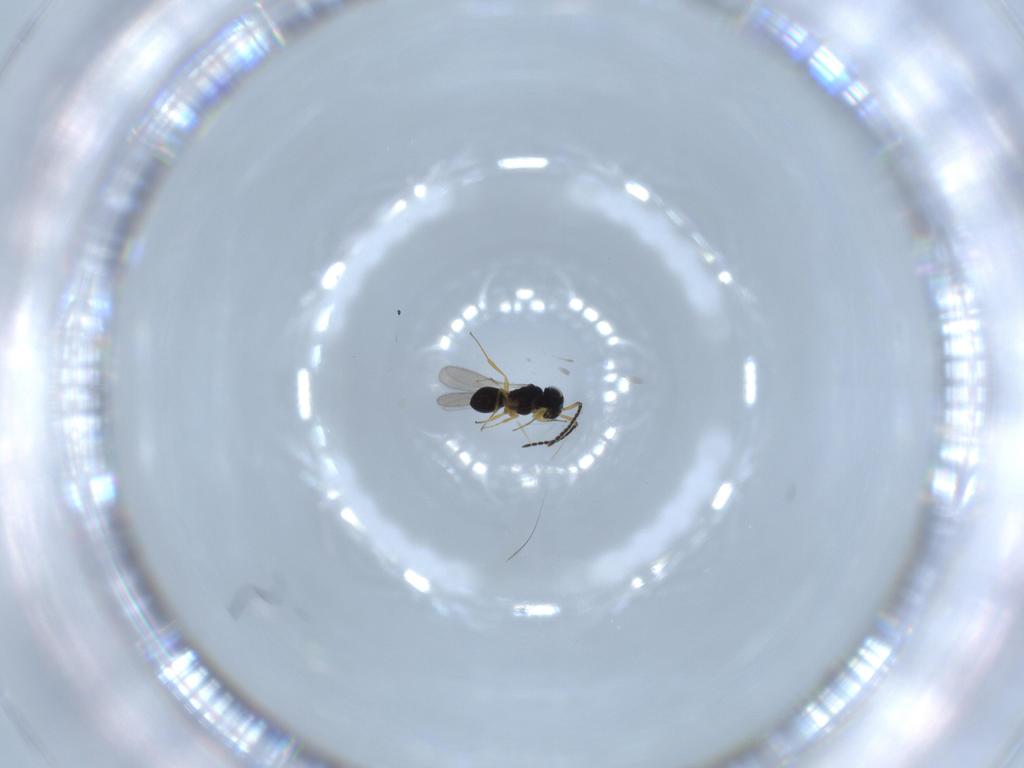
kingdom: Animalia
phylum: Arthropoda
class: Insecta
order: Hymenoptera
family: Scelionidae
